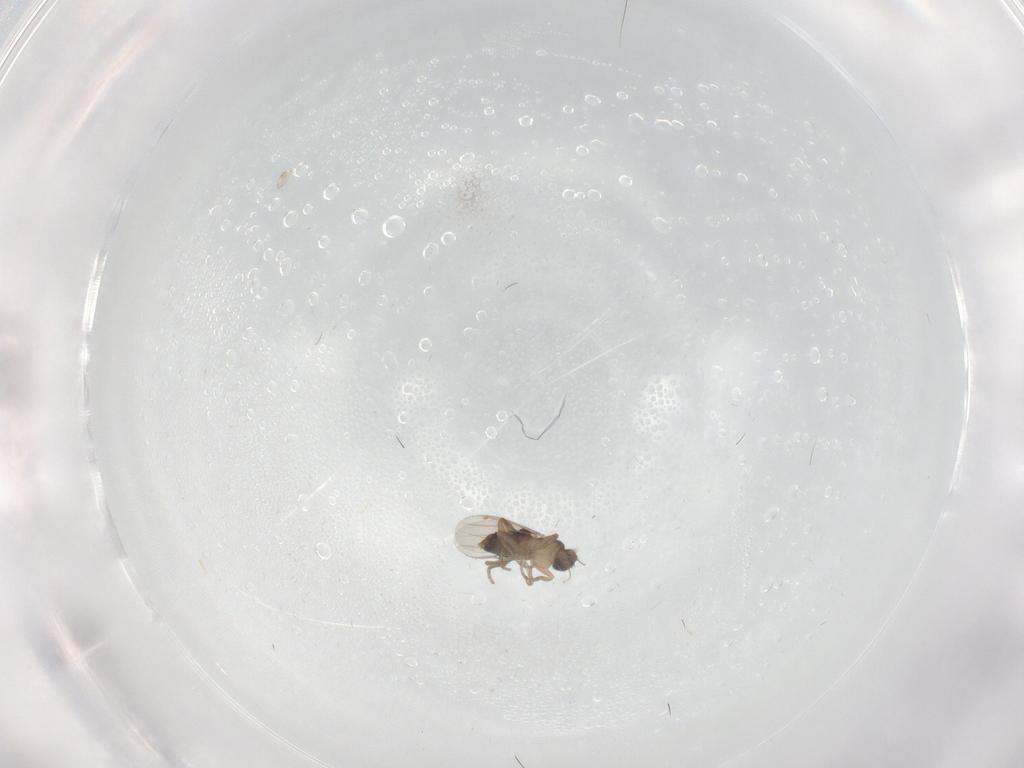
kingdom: Animalia
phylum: Arthropoda
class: Insecta
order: Diptera
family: Phoridae
